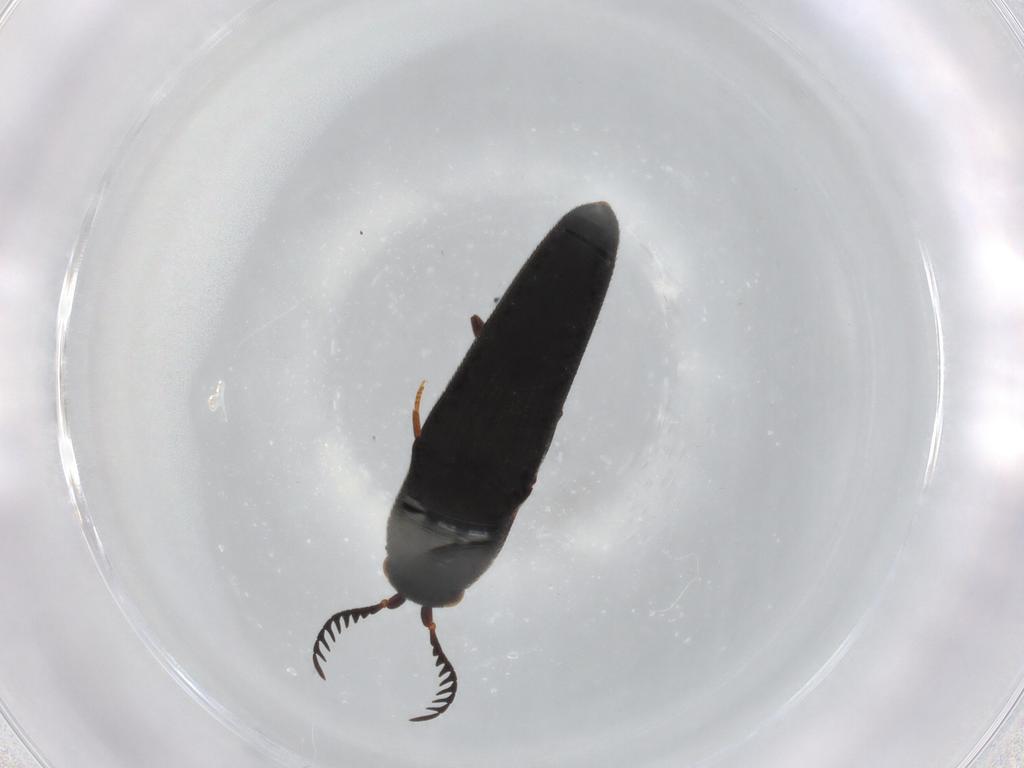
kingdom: Animalia
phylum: Arthropoda
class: Insecta
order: Coleoptera
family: Eucnemidae
